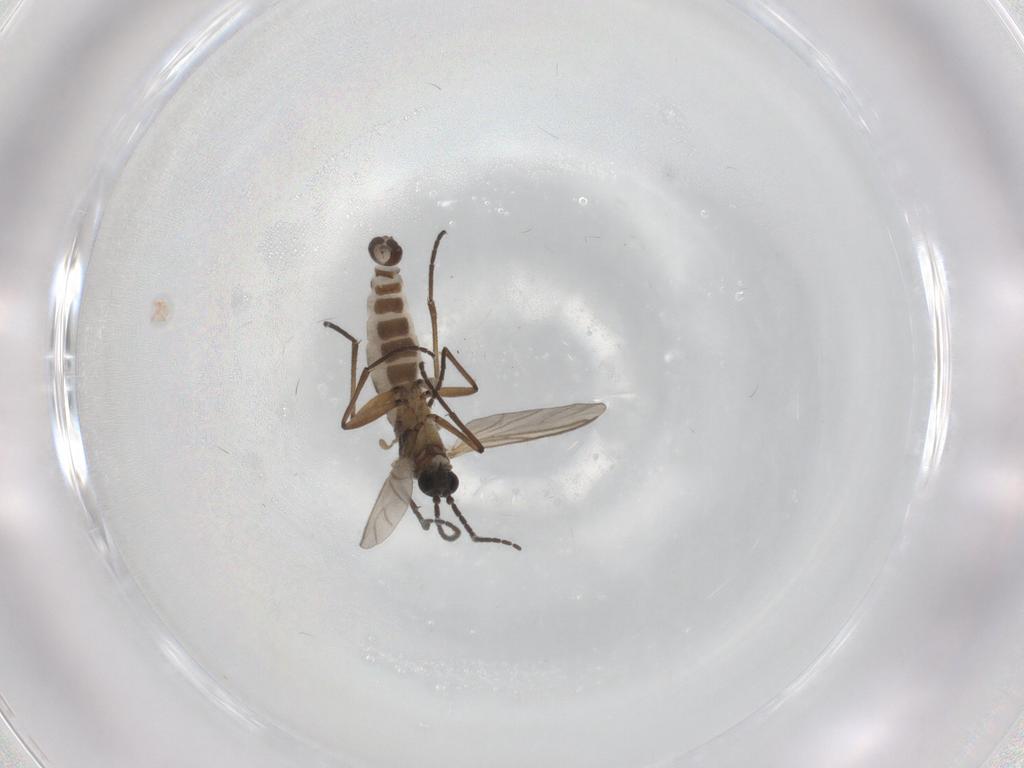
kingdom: Animalia
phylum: Arthropoda
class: Insecta
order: Diptera
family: Sciaridae
